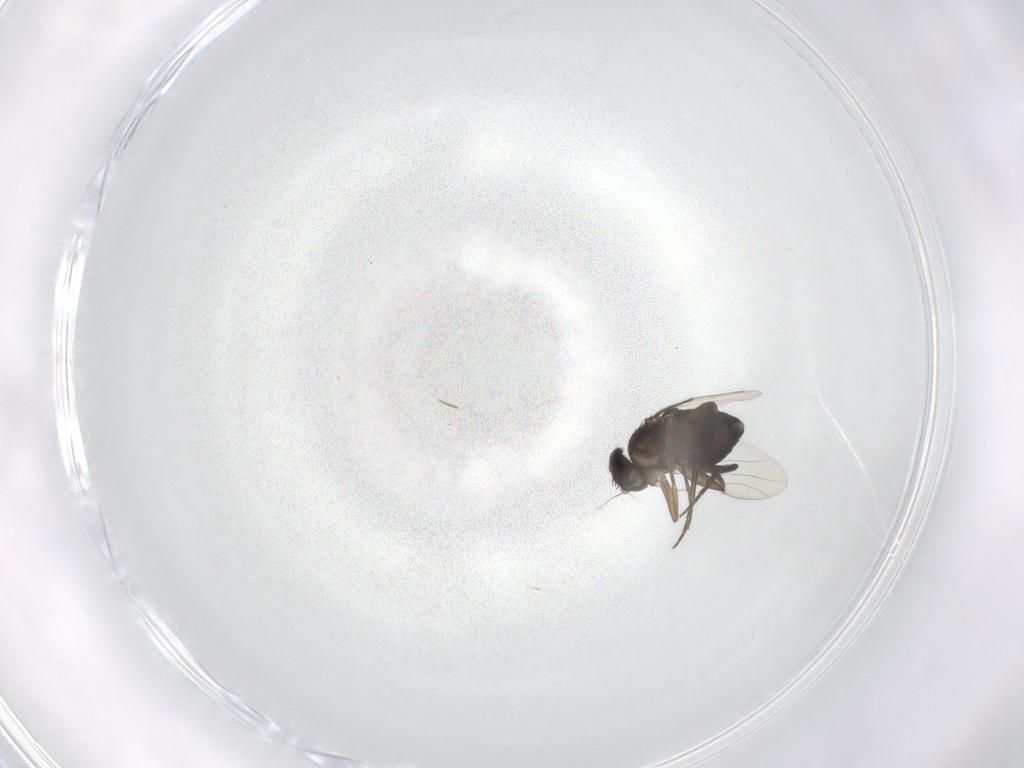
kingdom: Animalia
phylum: Arthropoda
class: Insecta
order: Diptera
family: Phoridae
